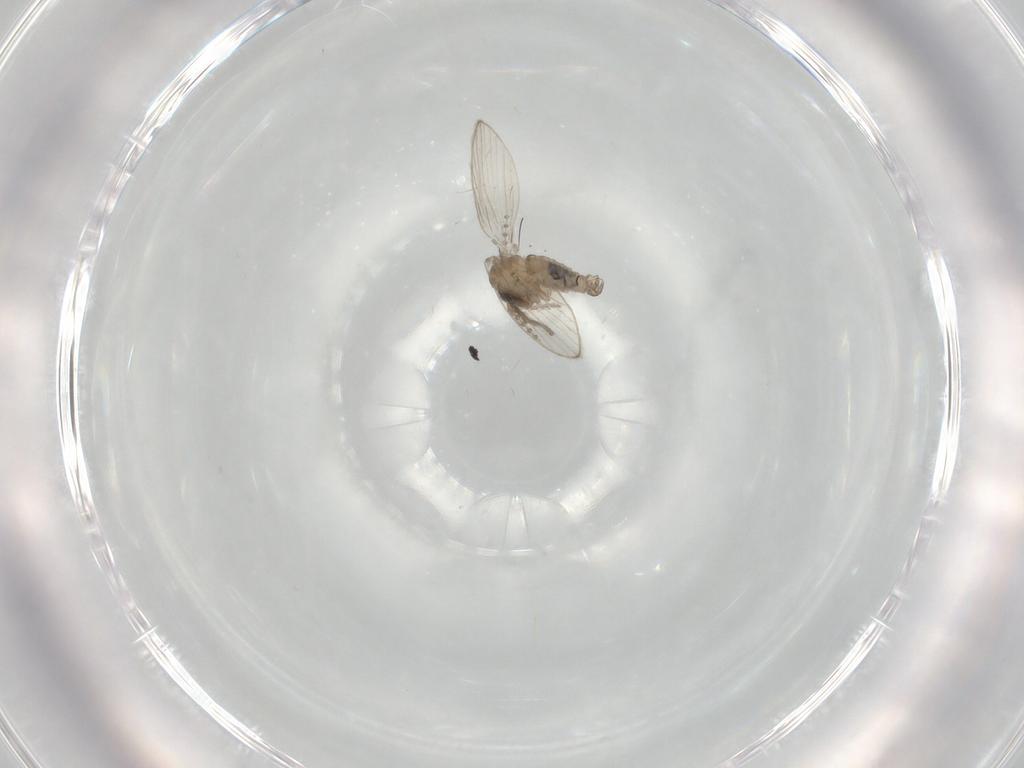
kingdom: Animalia
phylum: Arthropoda
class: Insecta
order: Diptera
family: Psychodidae
